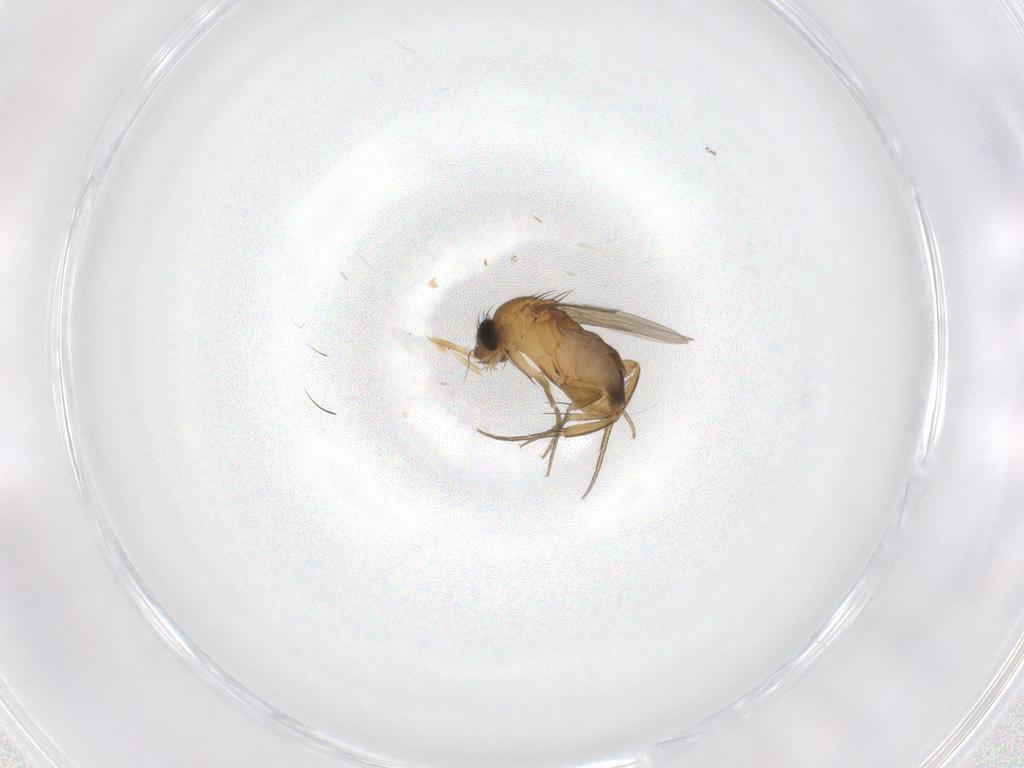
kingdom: Animalia
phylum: Arthropoda
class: Insecta
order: Diptera
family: Phoridae
